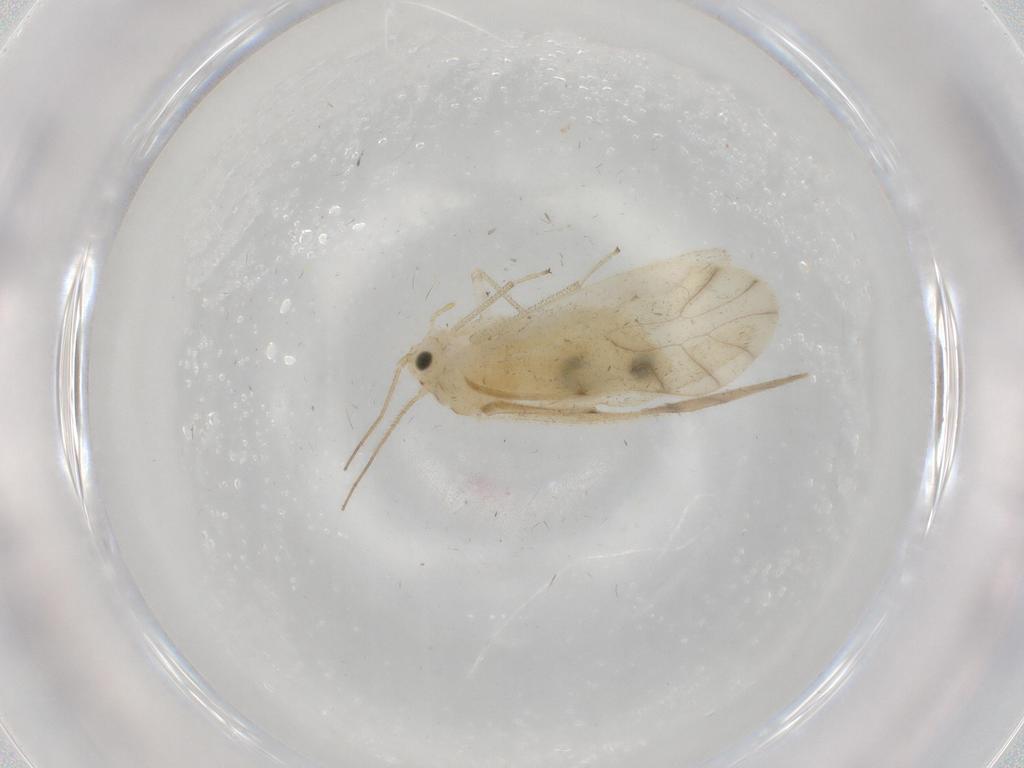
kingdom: Animalia
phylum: Arthropoda
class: Insecta
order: Psocodea
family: Caeciliusidae
